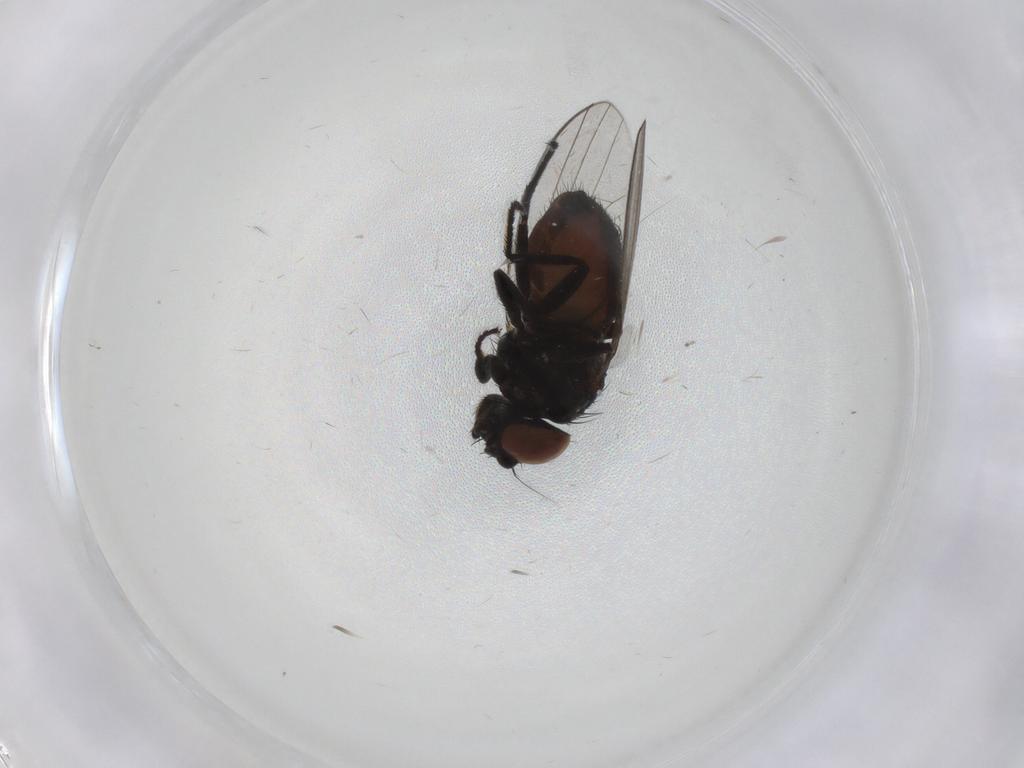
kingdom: Animalia
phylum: Arthropoda
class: Insecta
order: Diptera
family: Milichiidae
